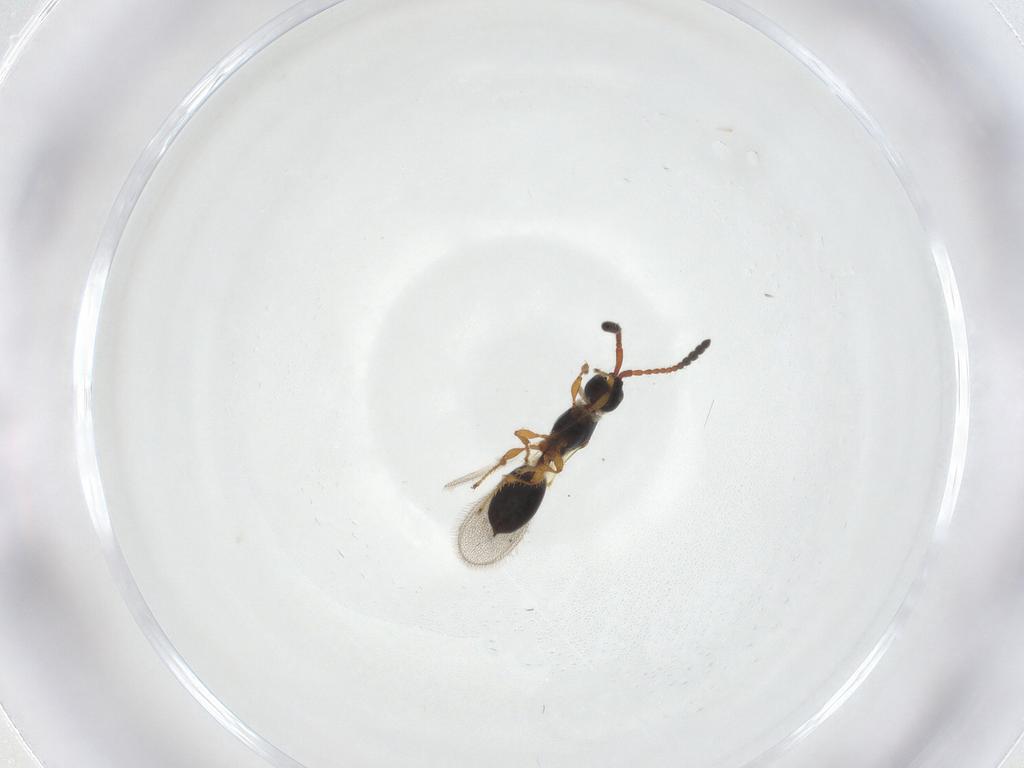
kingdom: Animalia
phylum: Arthropoda
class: Insecta
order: Hymenoptera
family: Diapriidae
